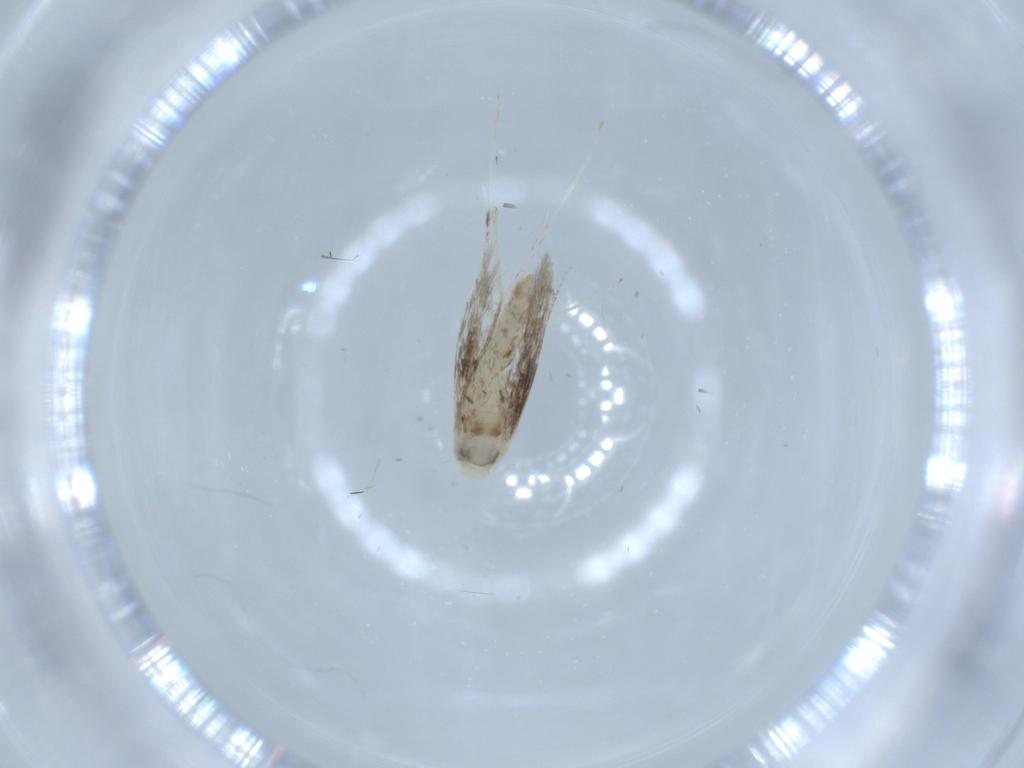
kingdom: Animalia
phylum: Arthropoda
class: Insecta
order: Lepidoptera
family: Gracillariidae
